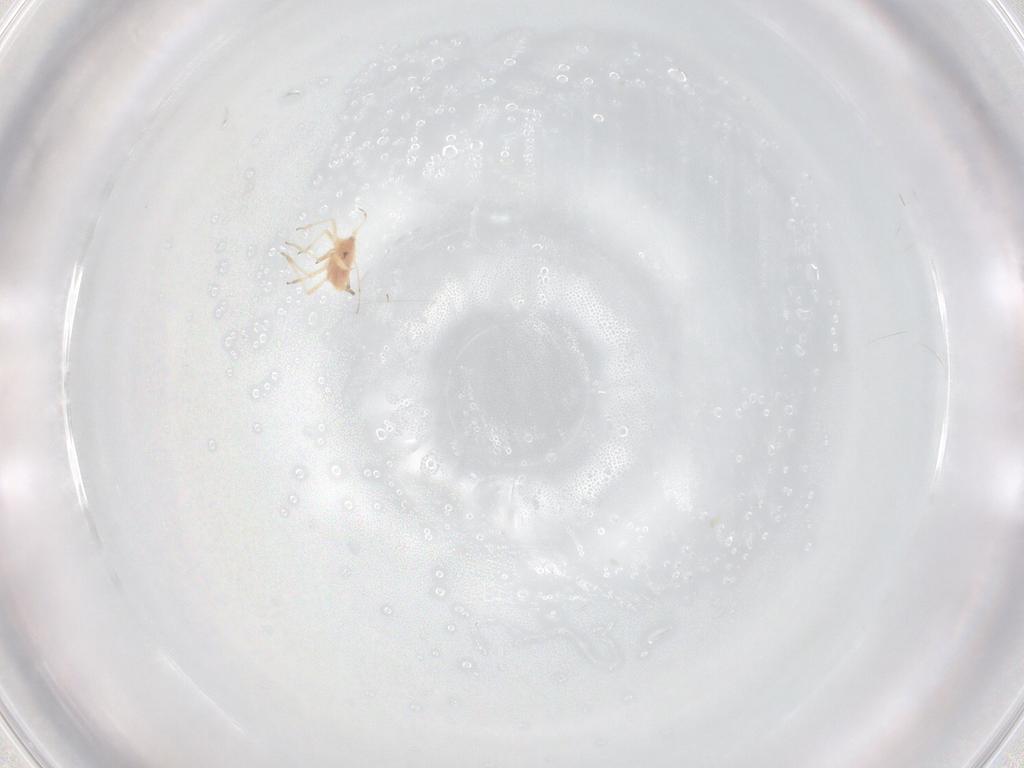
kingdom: Animalia
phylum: Arthropoda
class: Insecta
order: Hemiptera
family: Aphididae
